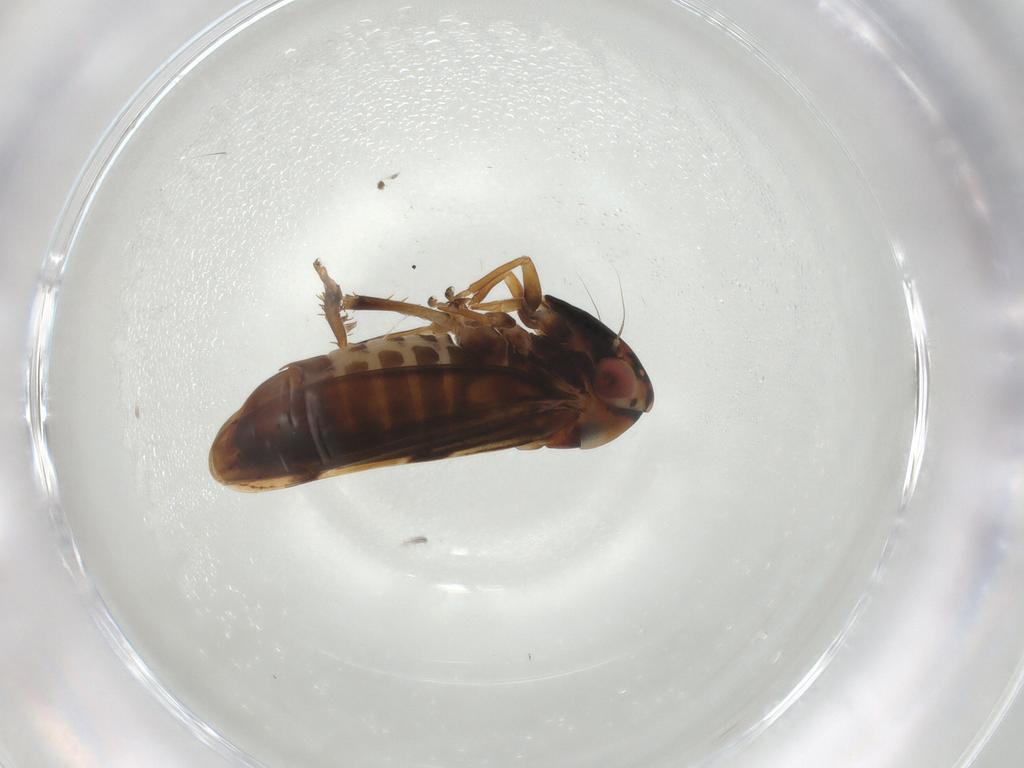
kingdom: Animalia
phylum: Arthropoda
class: Insecta
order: Hemiptera
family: Cicadellidae
